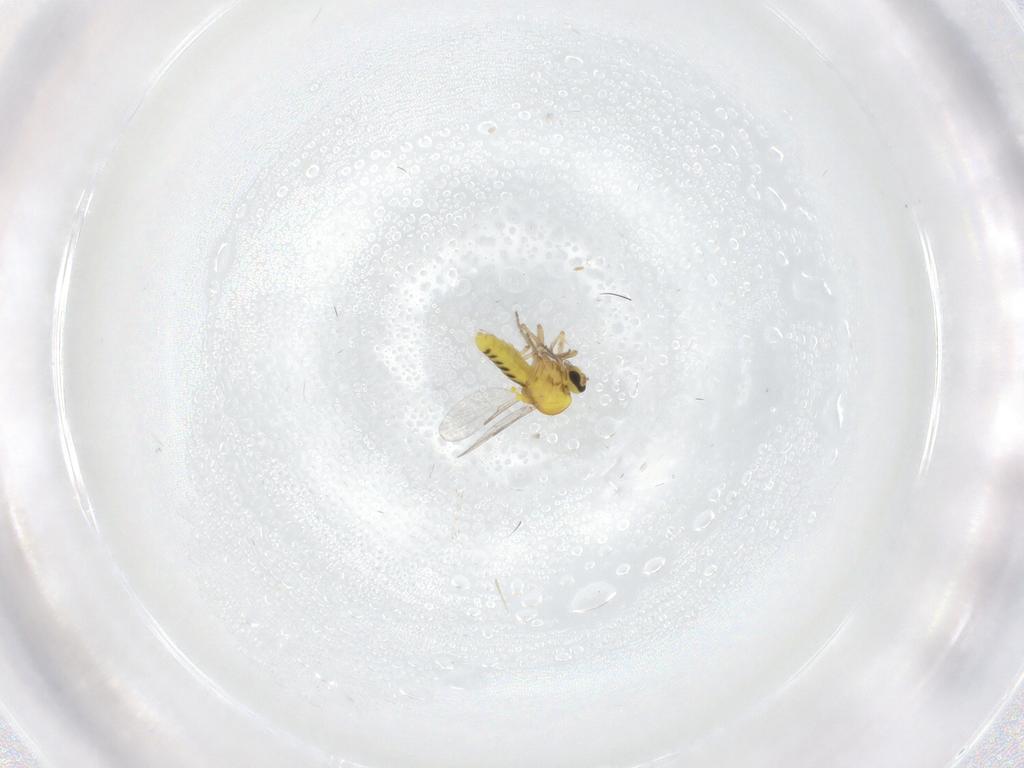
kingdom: Animalia
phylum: Arthropoda
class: Insecta
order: Diptera
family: Ceratopogonidae
